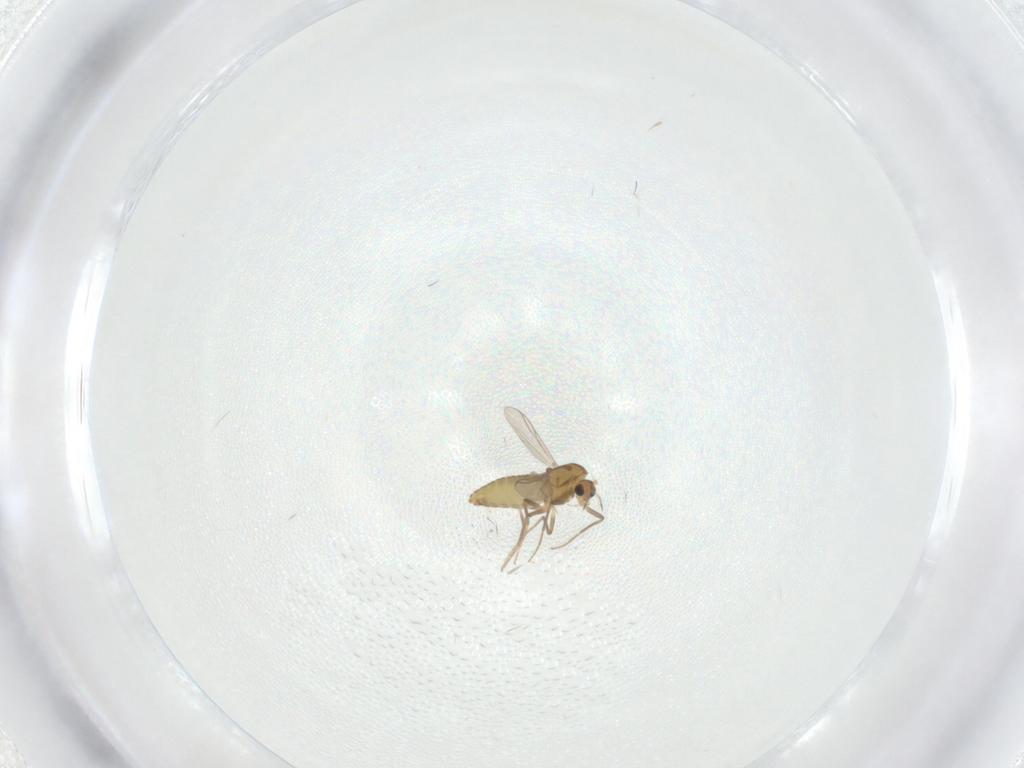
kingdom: Animalia
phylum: Arthropoda
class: Insecta
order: Diptera
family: Chironomidae
